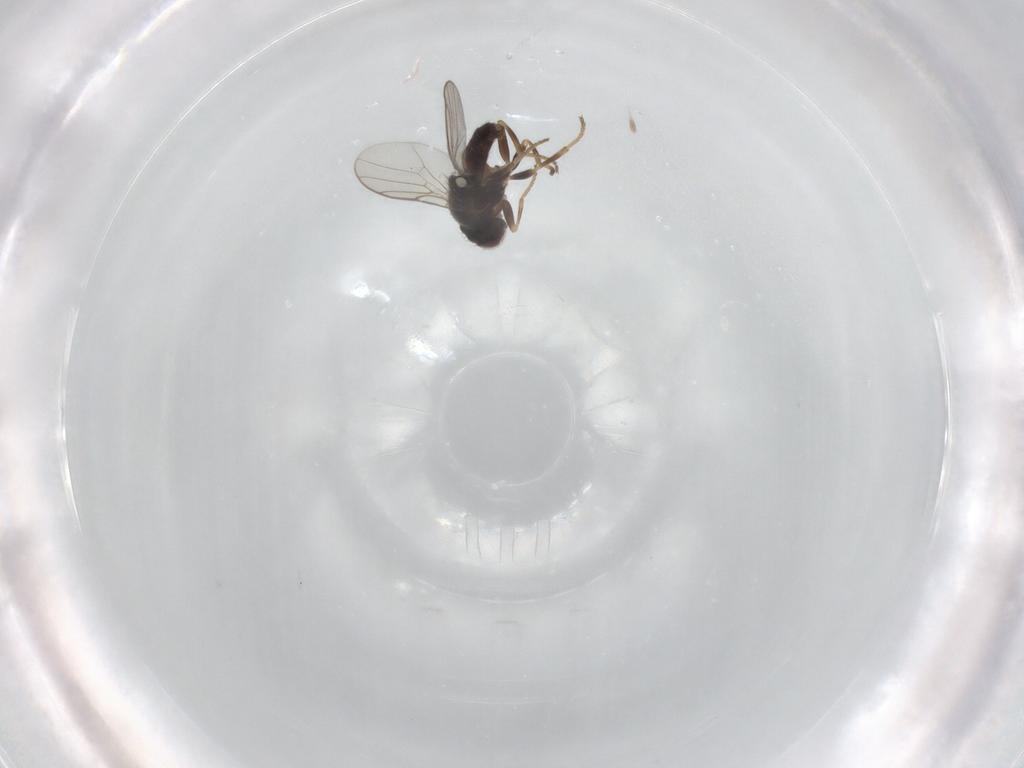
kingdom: Animalia
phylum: Arthropoda
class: Insecta
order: Diptera
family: Chloropidae
